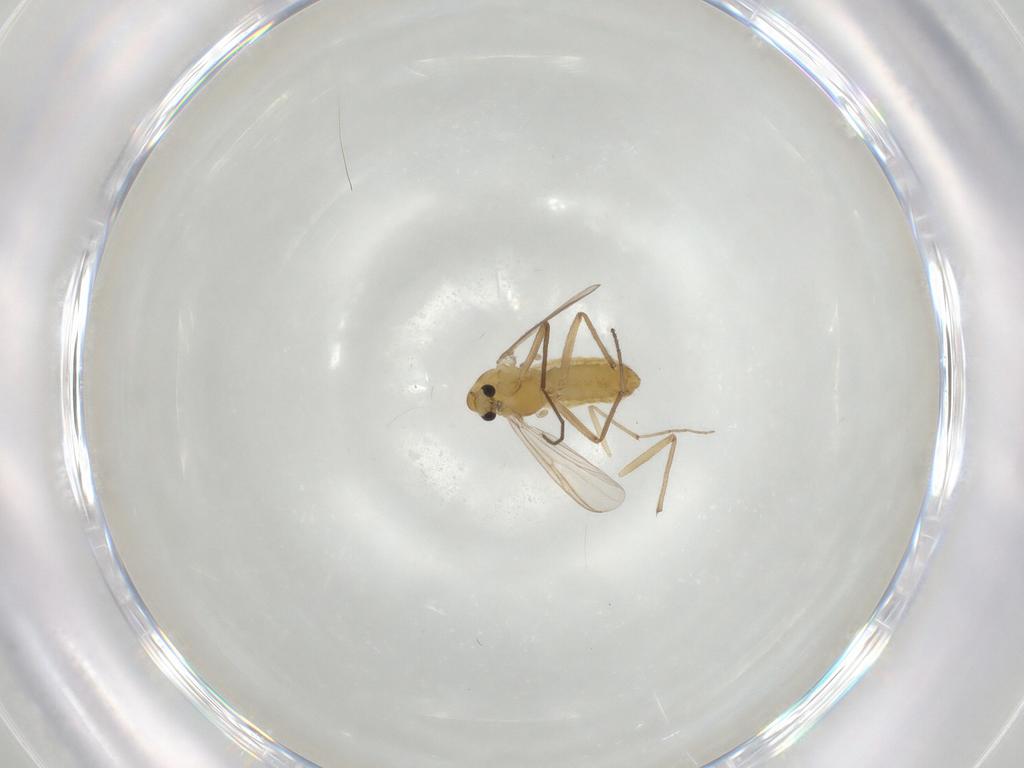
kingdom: Animalia
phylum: Arthropoda
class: Insecta
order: Diptera
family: Chironomidae
